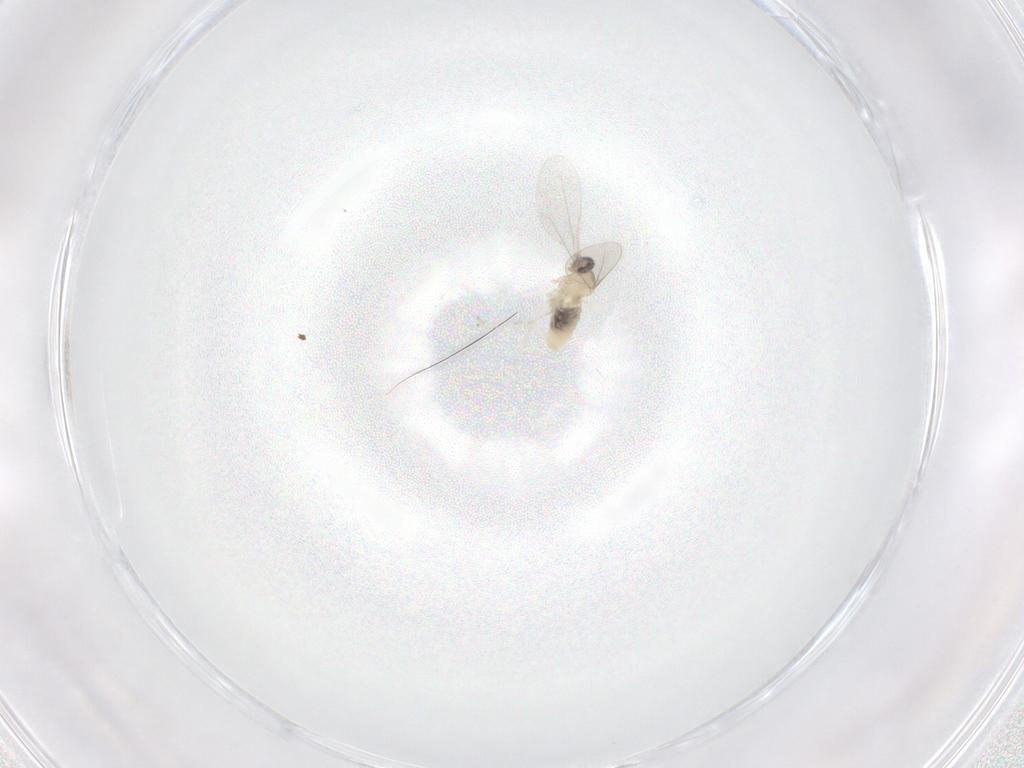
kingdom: Animalia
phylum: Arthropoda
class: Insecta
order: Diptera
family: Cecidomyiidae
